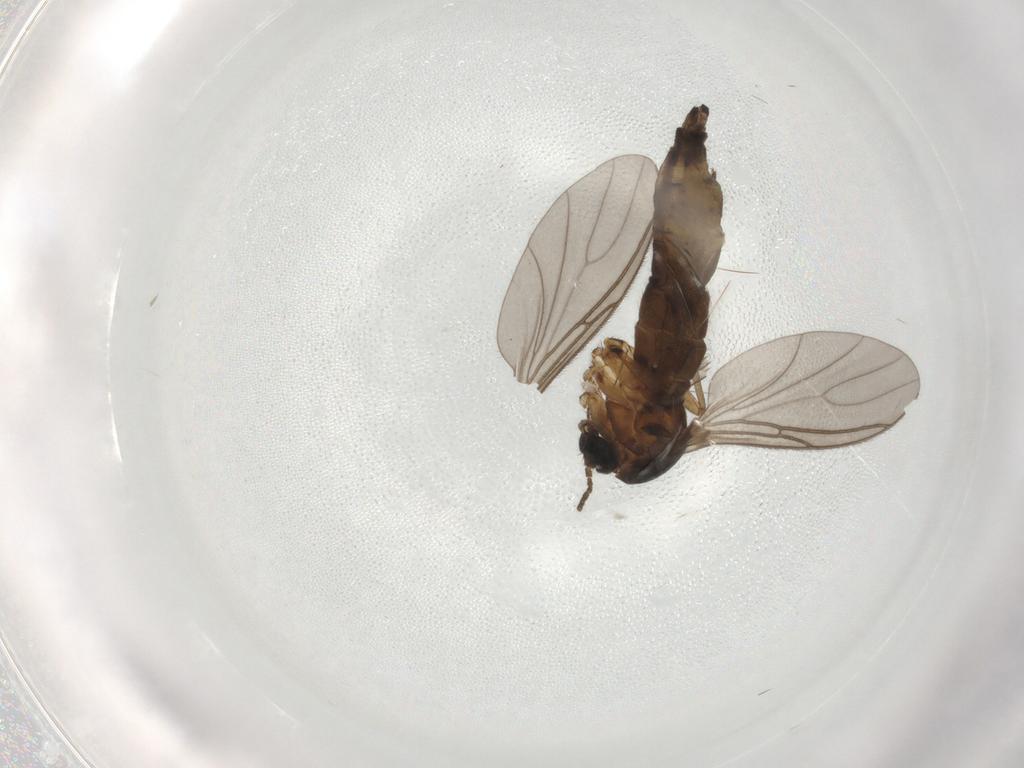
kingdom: Animalia
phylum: Arthropoda
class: Insecta
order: Diptera
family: Sciaridae
